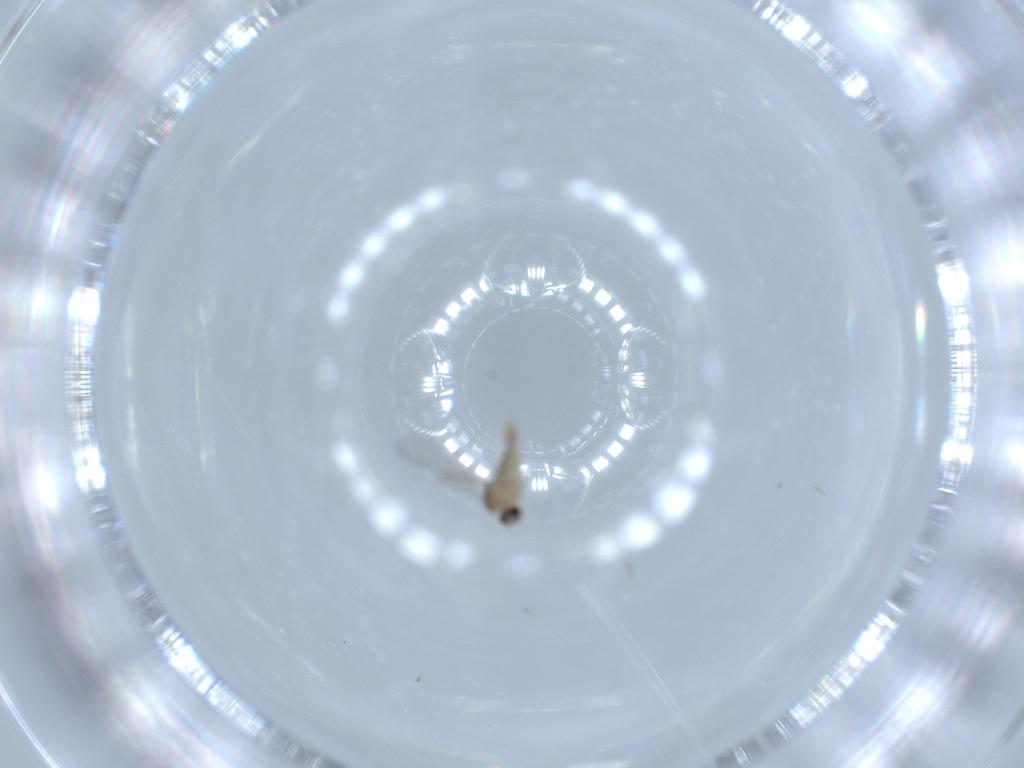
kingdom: Animalia
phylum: Arthropoda
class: Insecta
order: Diptera
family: Cecidomyiidae
